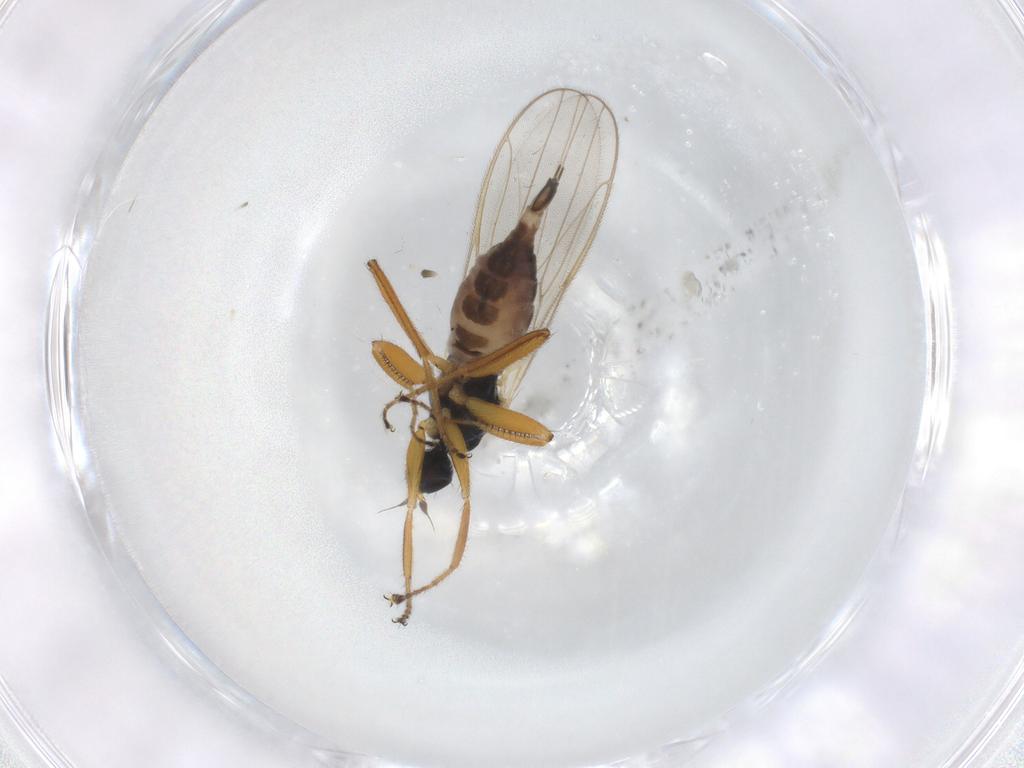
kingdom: Animalia
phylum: Arthropoda
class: Insecta
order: Diptera
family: Hybotidae
